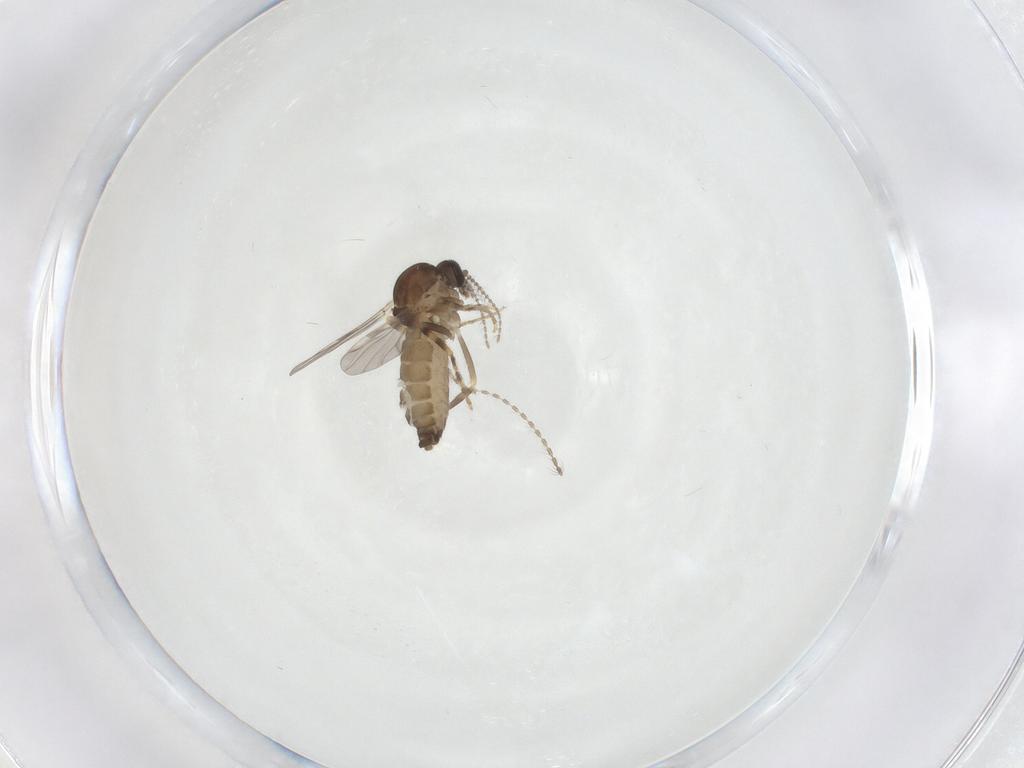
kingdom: Animalia
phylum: Arthropoda
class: Insecta
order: Diptera
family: Ceratopogonidae
